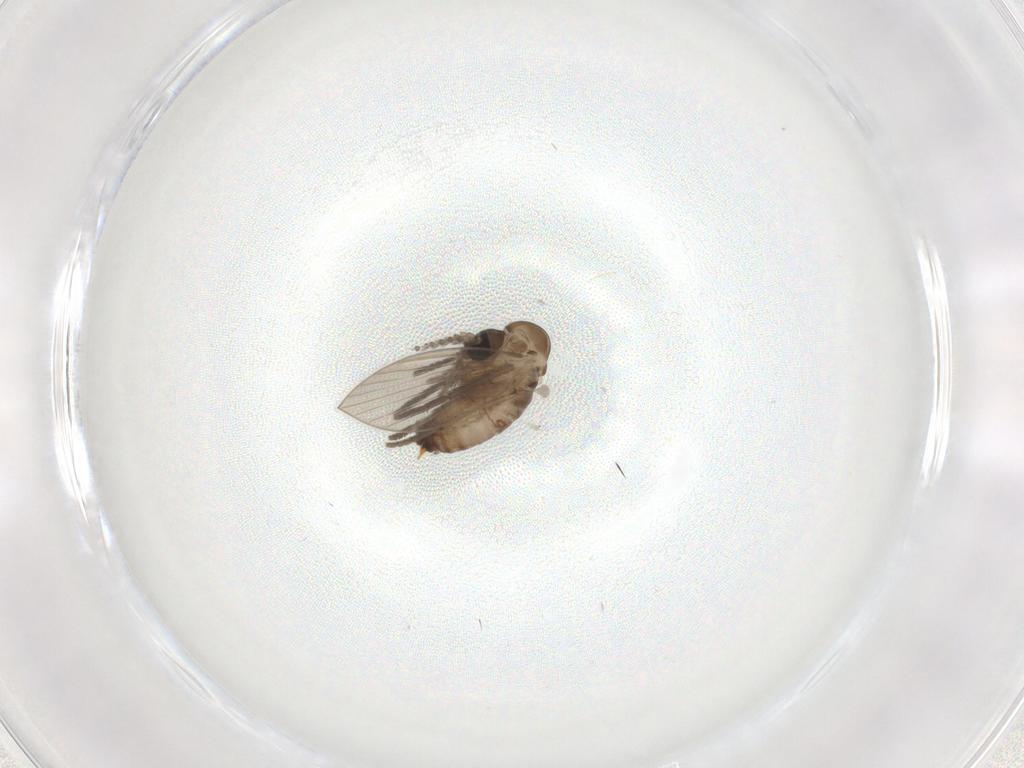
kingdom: Animalia
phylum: Arthropoda
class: Insecta
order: Diptera
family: Psychodidae
